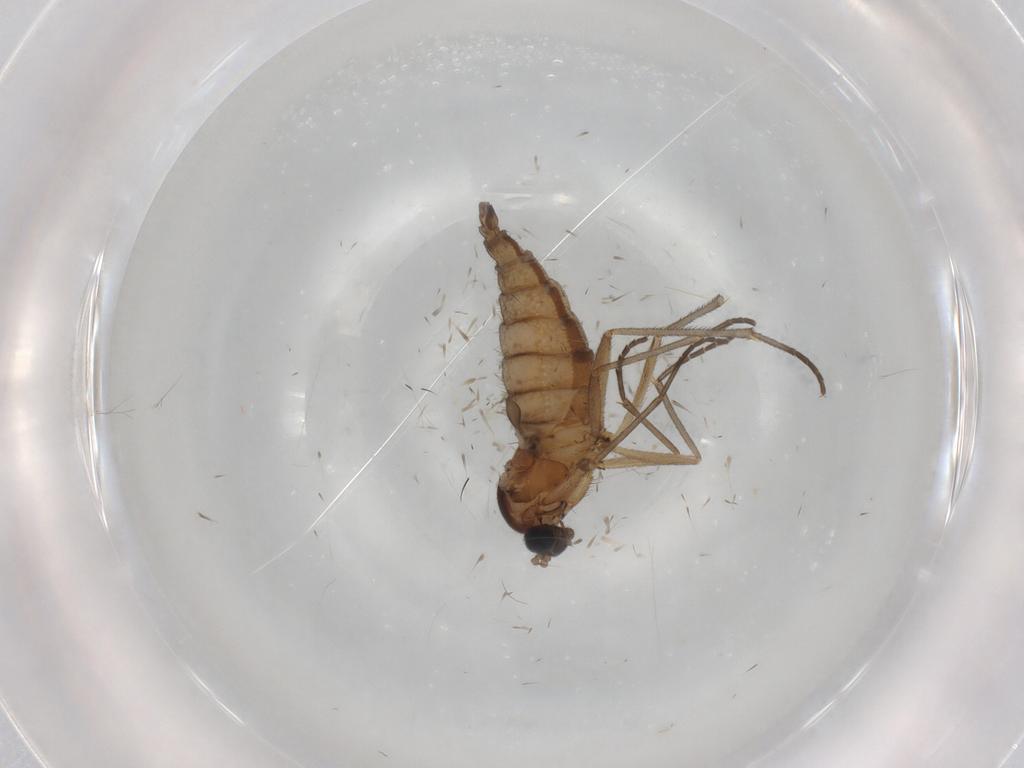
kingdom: Animalia
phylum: Arthropoda
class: Insecta
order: Diptera
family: Sciaridae
